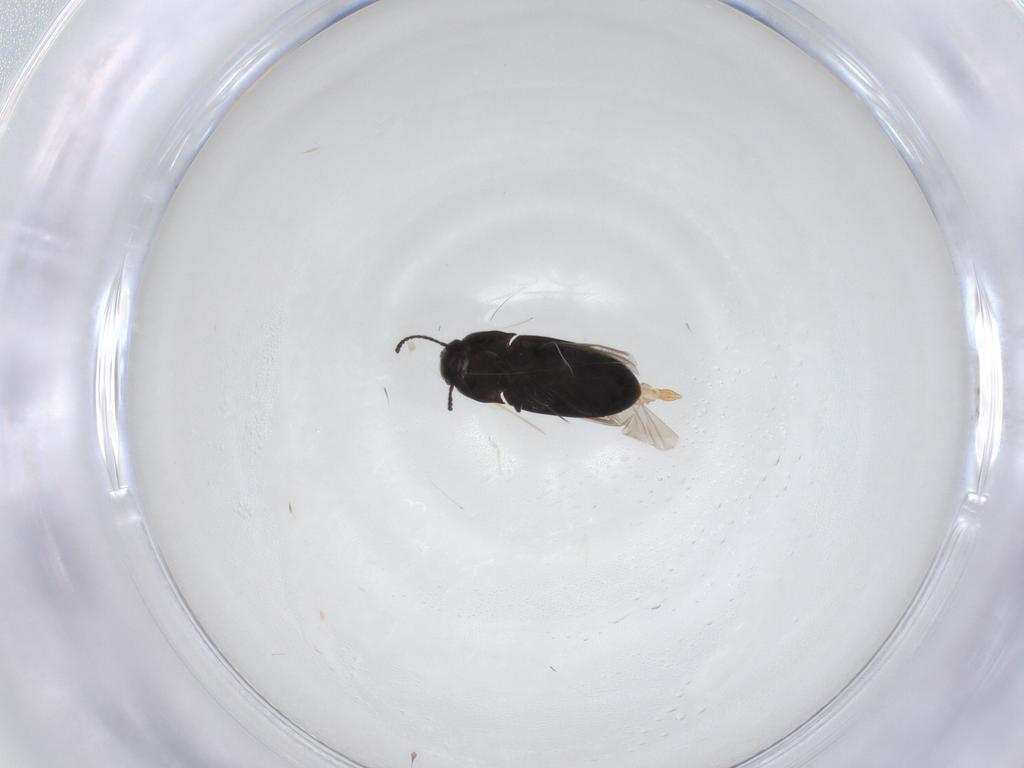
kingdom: Animalia
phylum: Arthropoda
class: Insecta
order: Coleoptera
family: Elateridae
